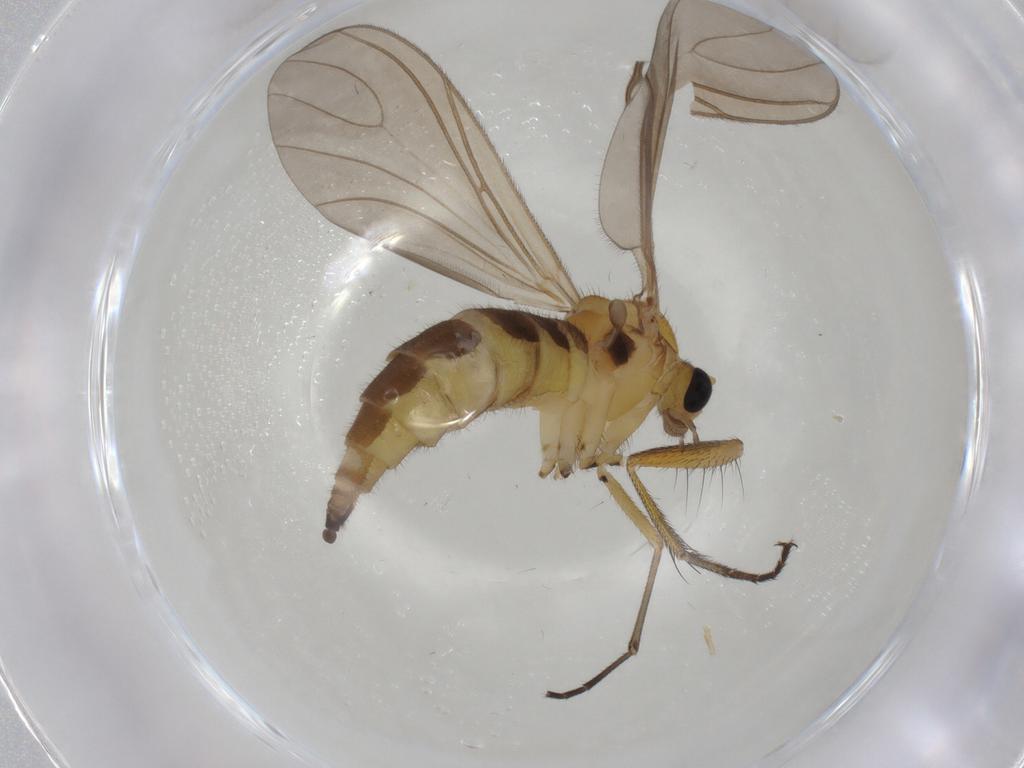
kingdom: Animalia
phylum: Arthropoda
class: Insecta
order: Diptera
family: Sciaridae
